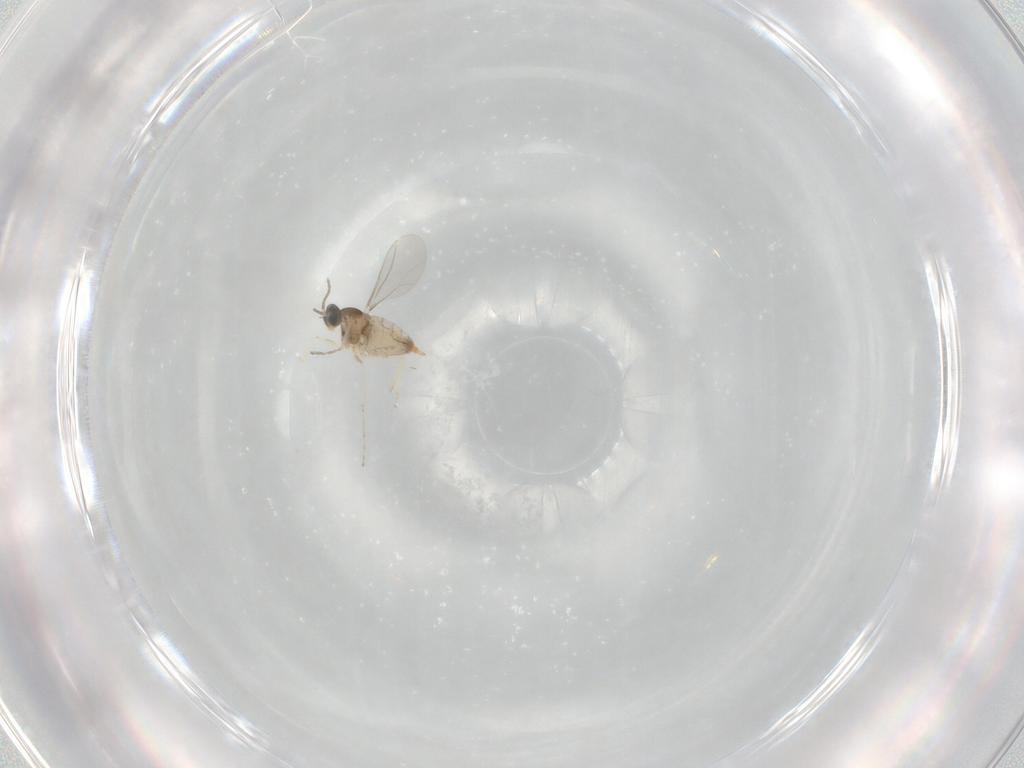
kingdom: Animalia
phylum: Arthropoda
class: Insecta
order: Diptera
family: Cecidomyiidae
